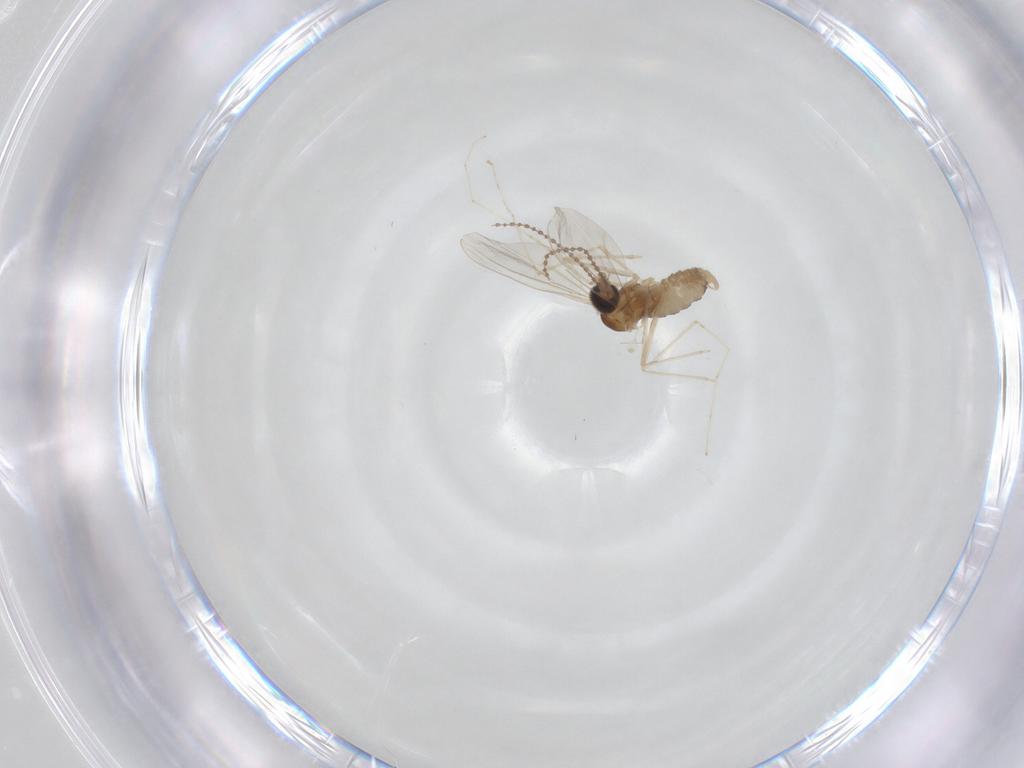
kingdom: Animalia
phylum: Arthropoda
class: Insecta
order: Diptera
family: Cecidomyiidae
